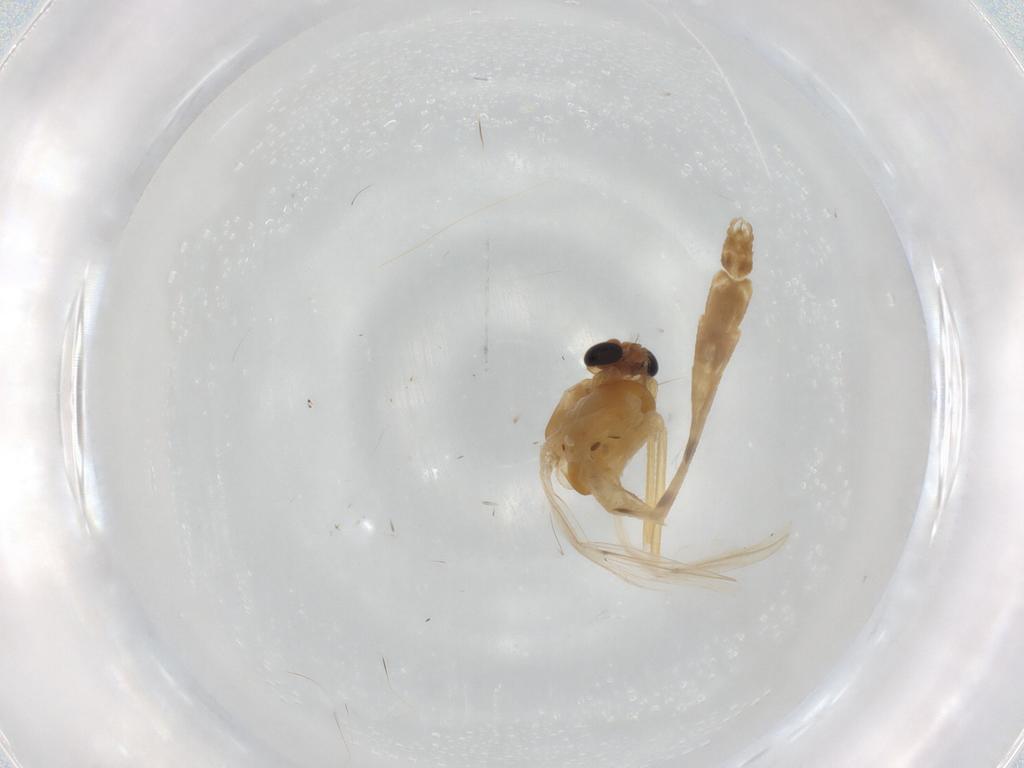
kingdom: Animalia
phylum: Arthropoda
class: Insecta
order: Diptera
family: Chironomidae
